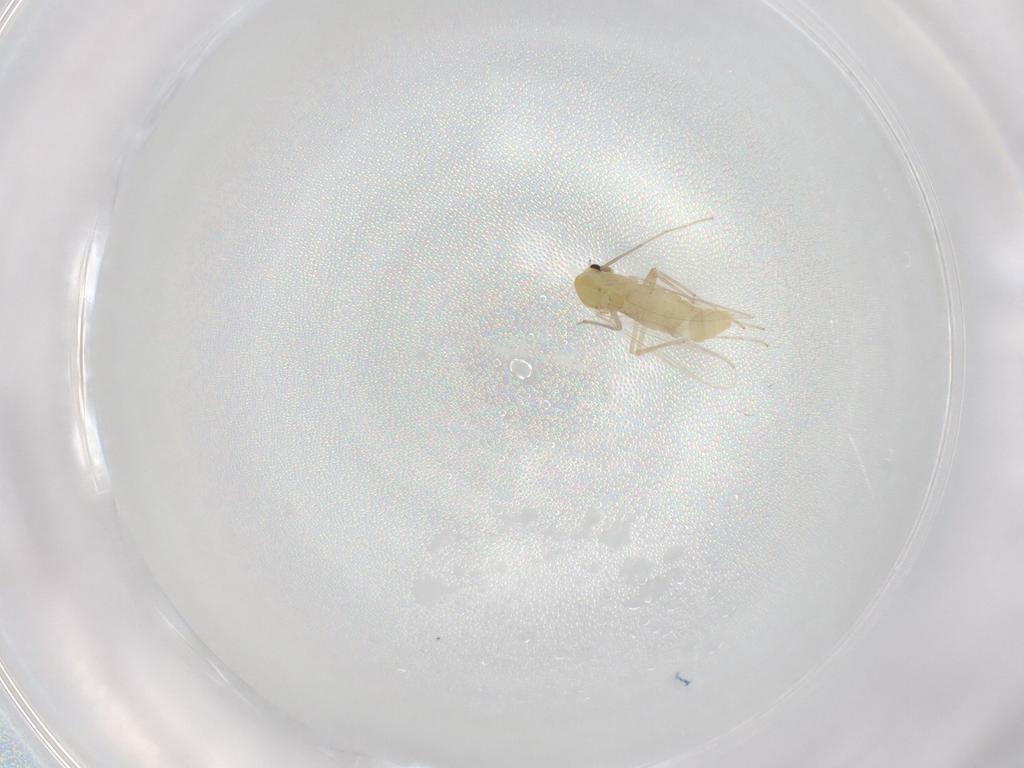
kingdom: Animalia
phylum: Arthropoda
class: Insecta
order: Diptera
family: Chironomidae
